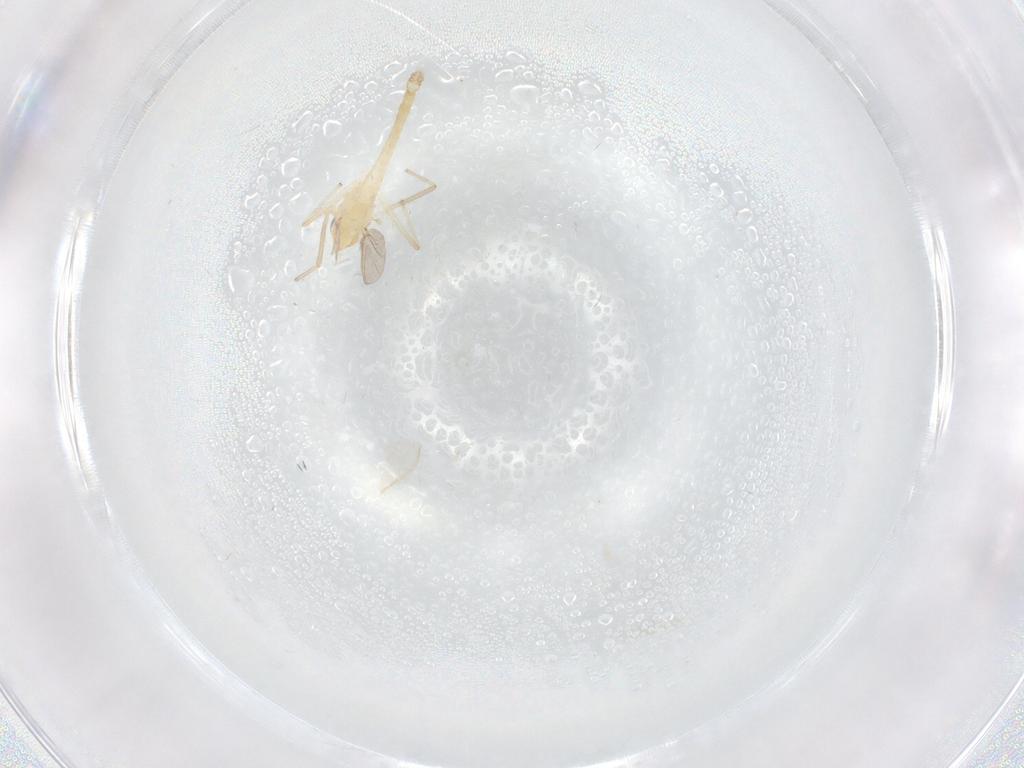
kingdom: Animalia
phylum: Arthropoda
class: Insecta
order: Diptera
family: Chironomidae
